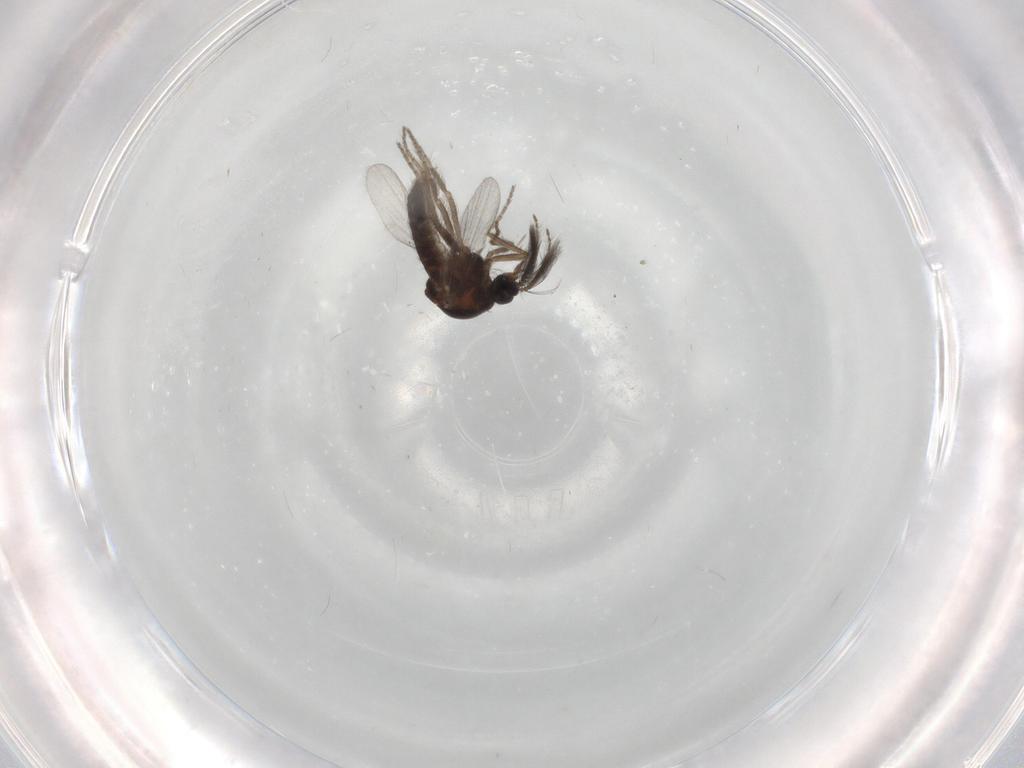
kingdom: Animalia
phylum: Arthropoda
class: Insecta
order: Diptera
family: Ceratopogonidae
